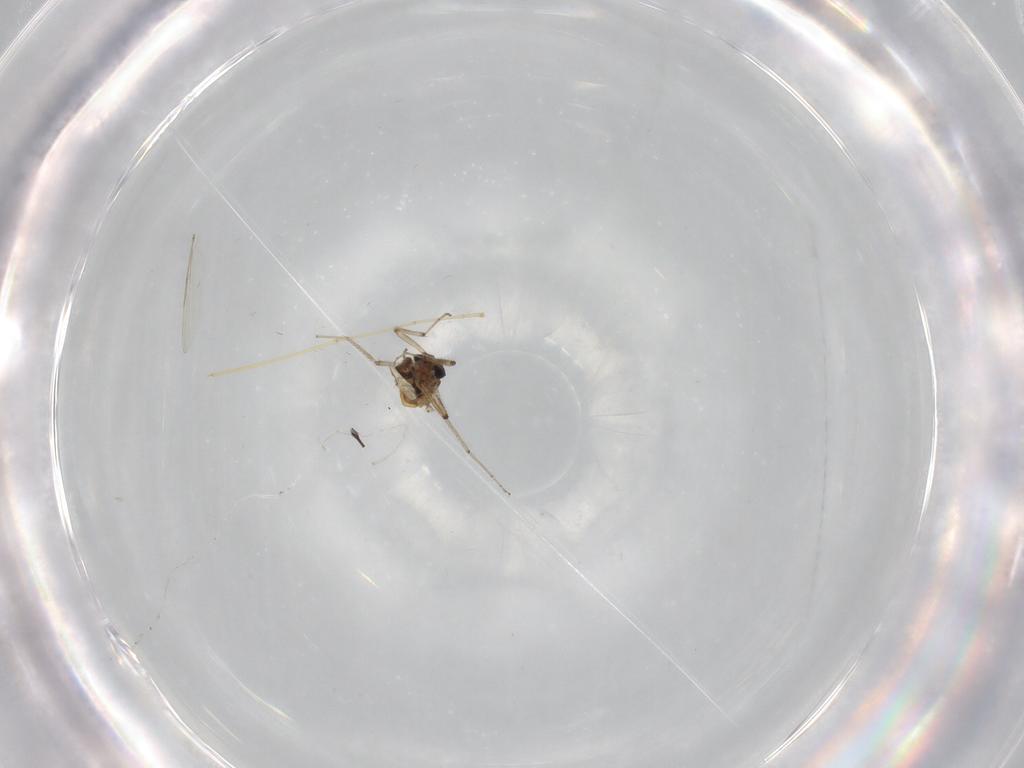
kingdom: Animalia
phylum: Arthropoda
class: Insecta
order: Diptera
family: Ceratopogonidae
